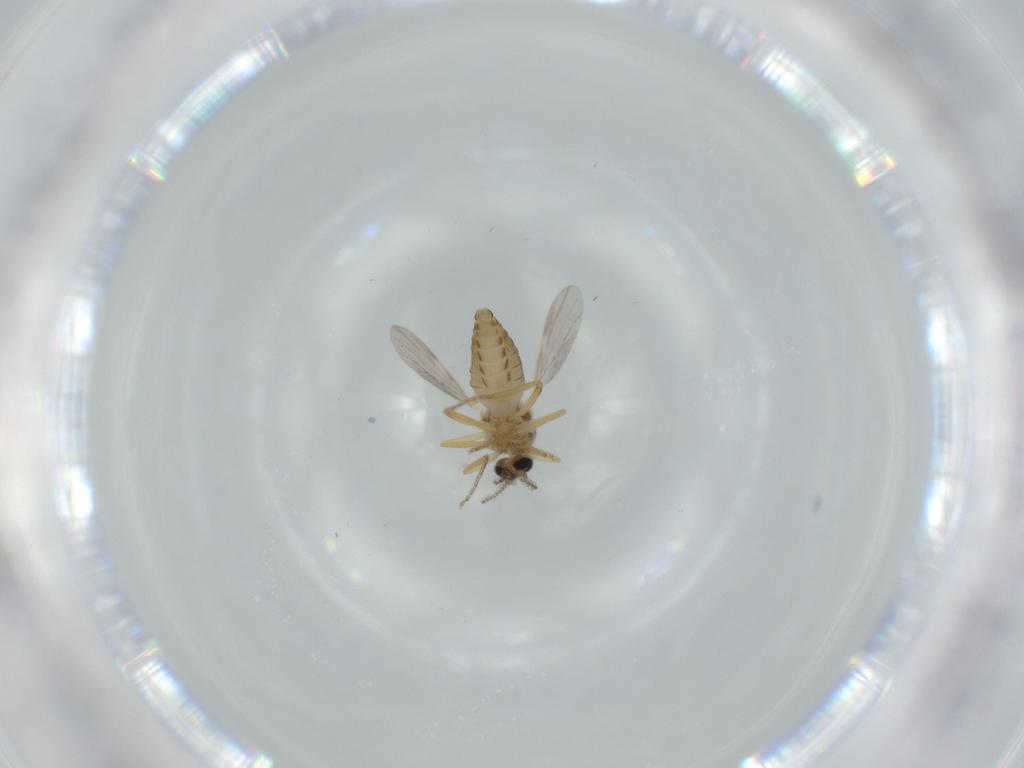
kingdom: Animalia
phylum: Arthropoda
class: Insecta
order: Diptera
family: Ceratopogonidae
